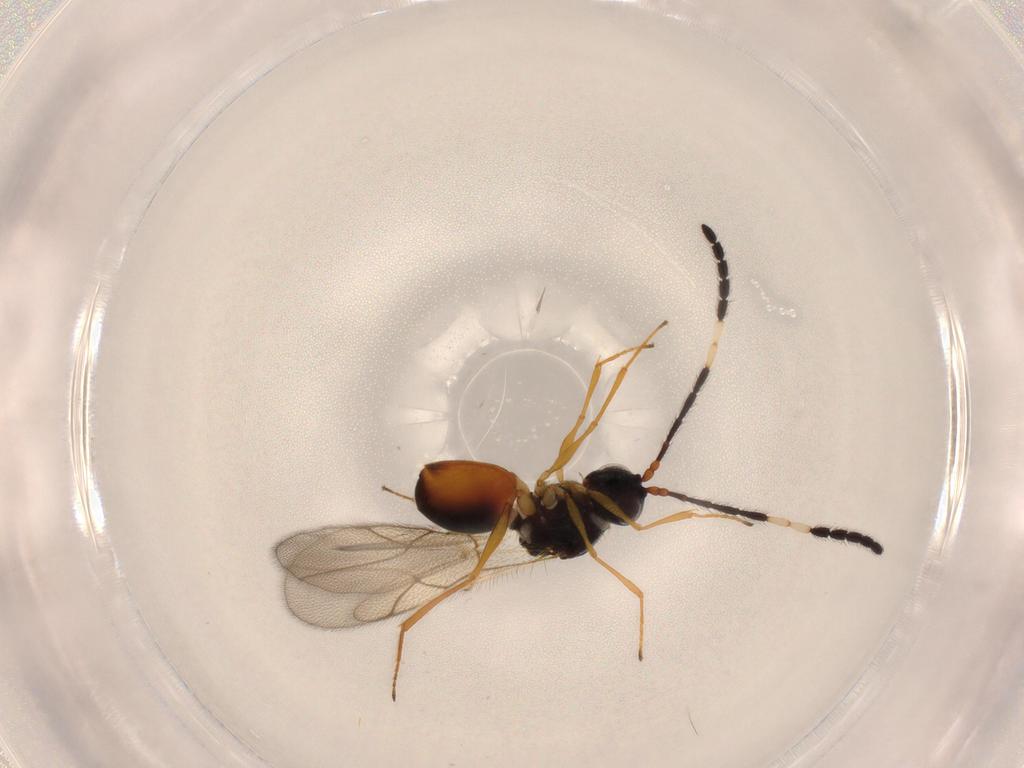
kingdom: Animalia
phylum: Arthropoda
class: Insecta
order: Hymenoptera
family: Figitidae
